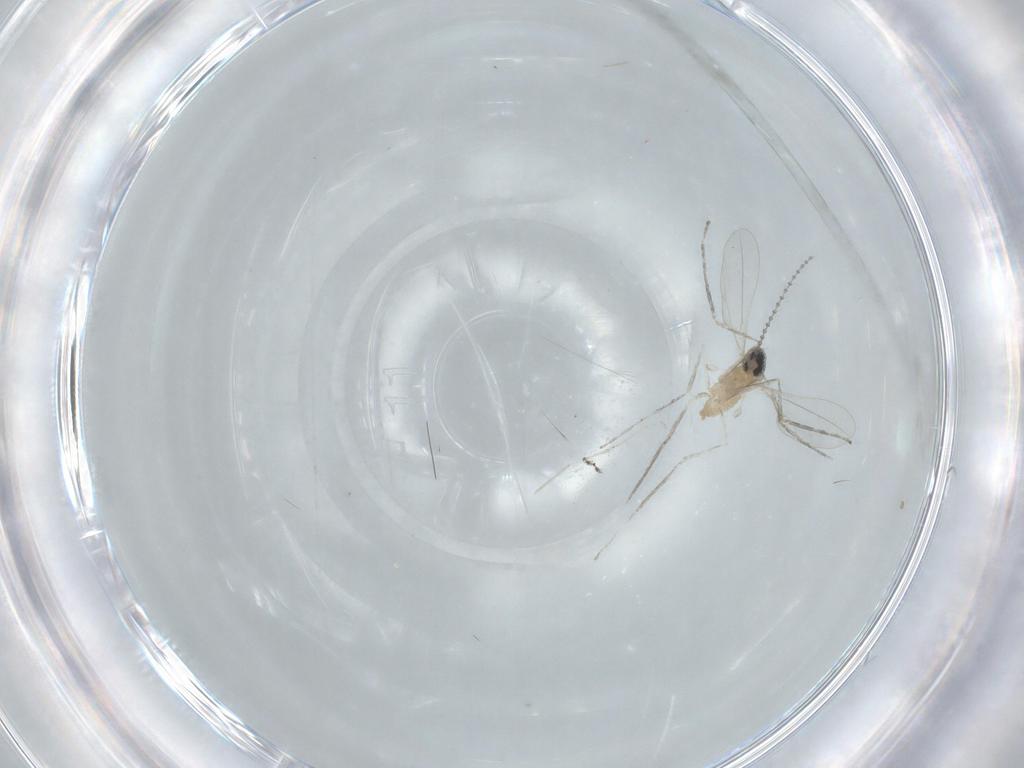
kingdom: Animalia
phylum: Arthropoda
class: Insecta
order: Diptera
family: Cecidomyiidae
